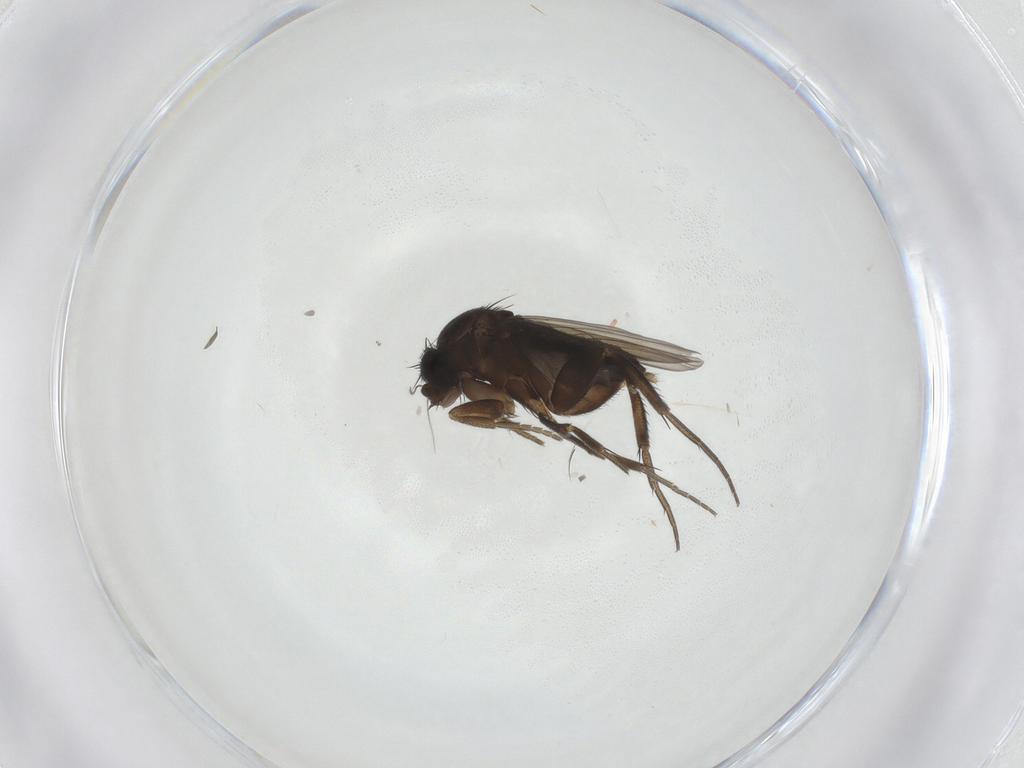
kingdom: Animalia
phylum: Arthropoda
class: Insecta
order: Diptera
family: Phoridae
